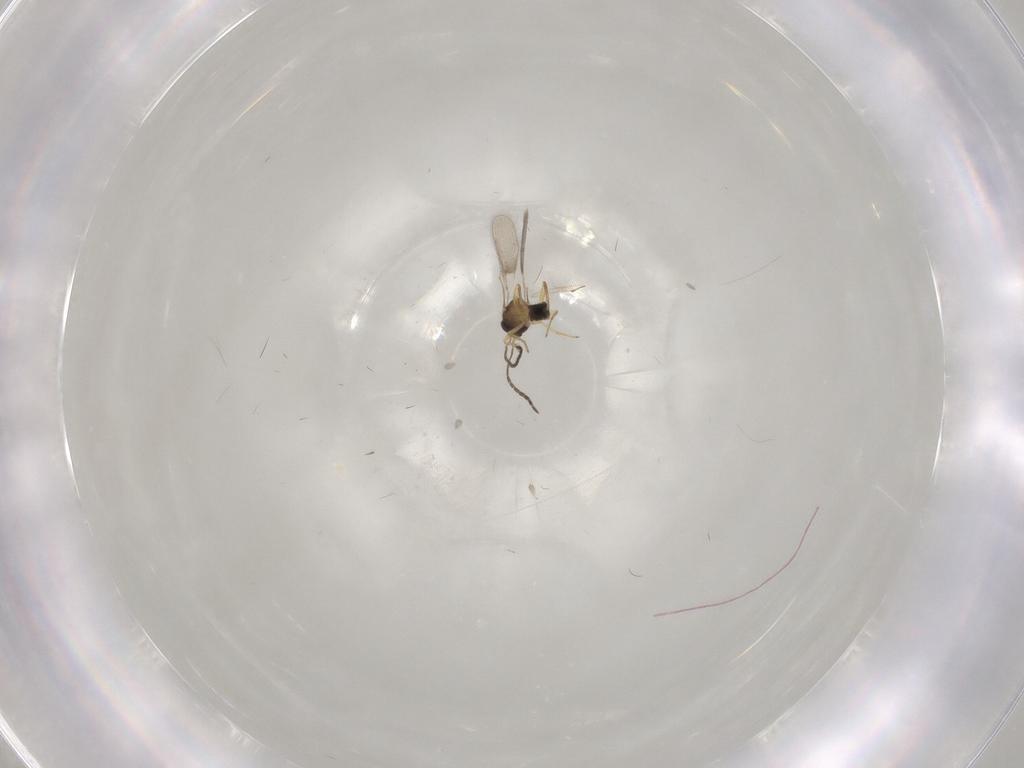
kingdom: Animalia
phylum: Arthropoda
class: Insecta
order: Hymenoptera
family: Mymaridae
